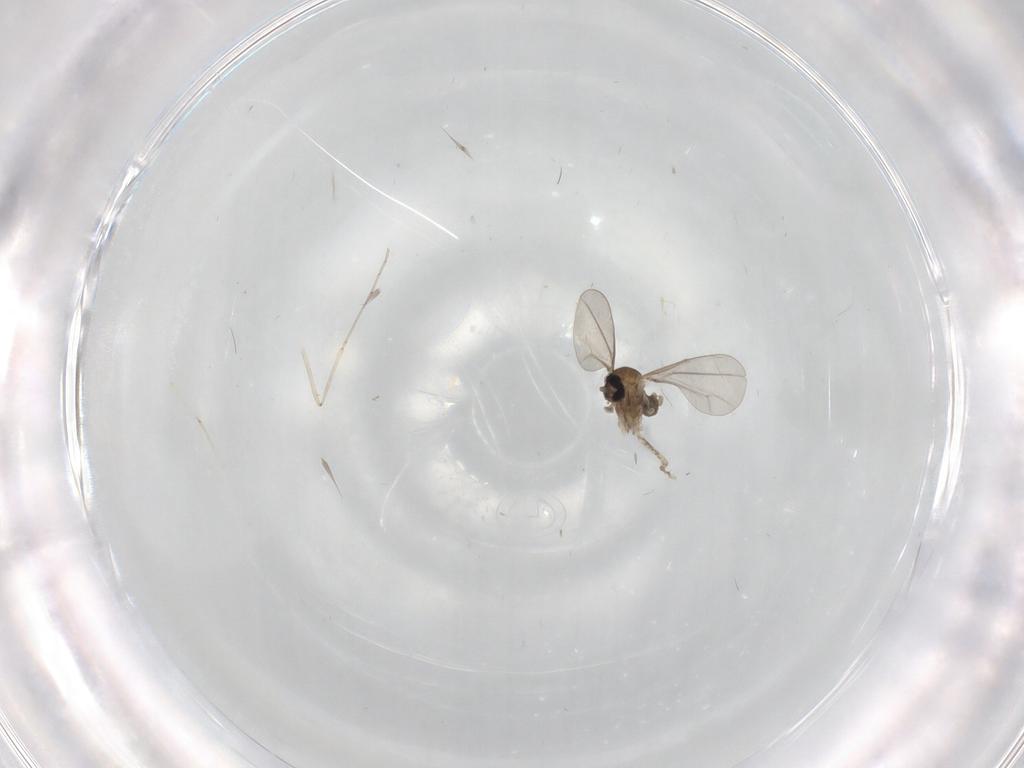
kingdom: Animalia
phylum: Arthropoda
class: Insecta
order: Diptera
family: Cecidomyiidae
